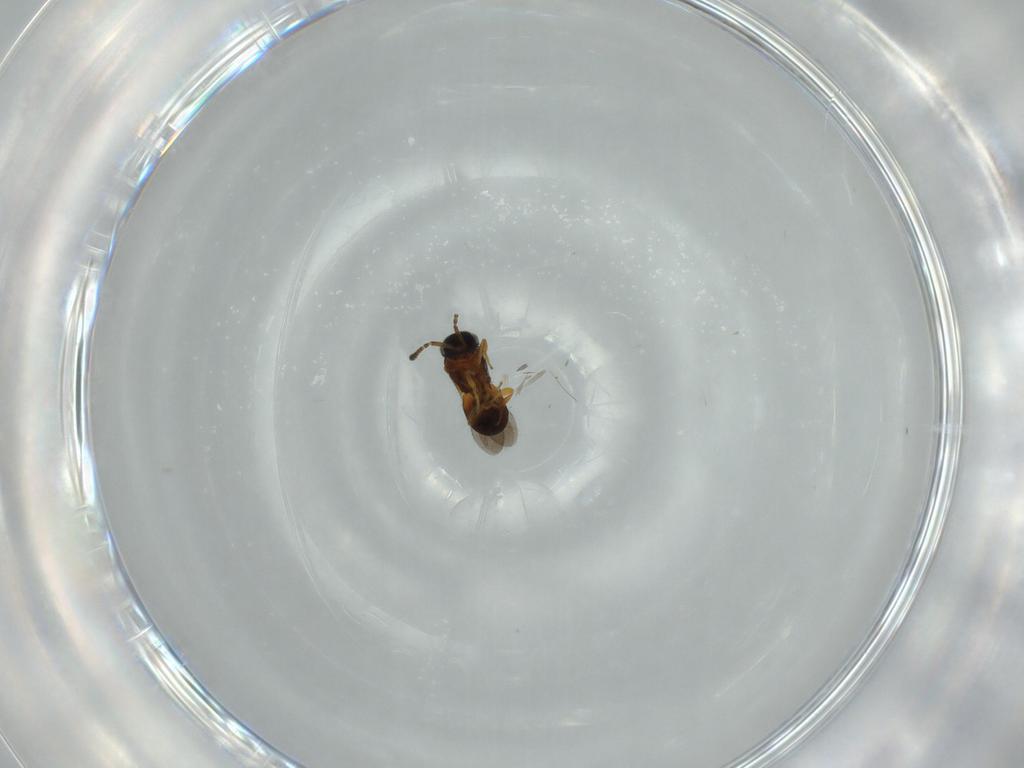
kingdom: Animalia
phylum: Arthropoda
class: Insecta
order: Hymenoptera
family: Scelionidae
